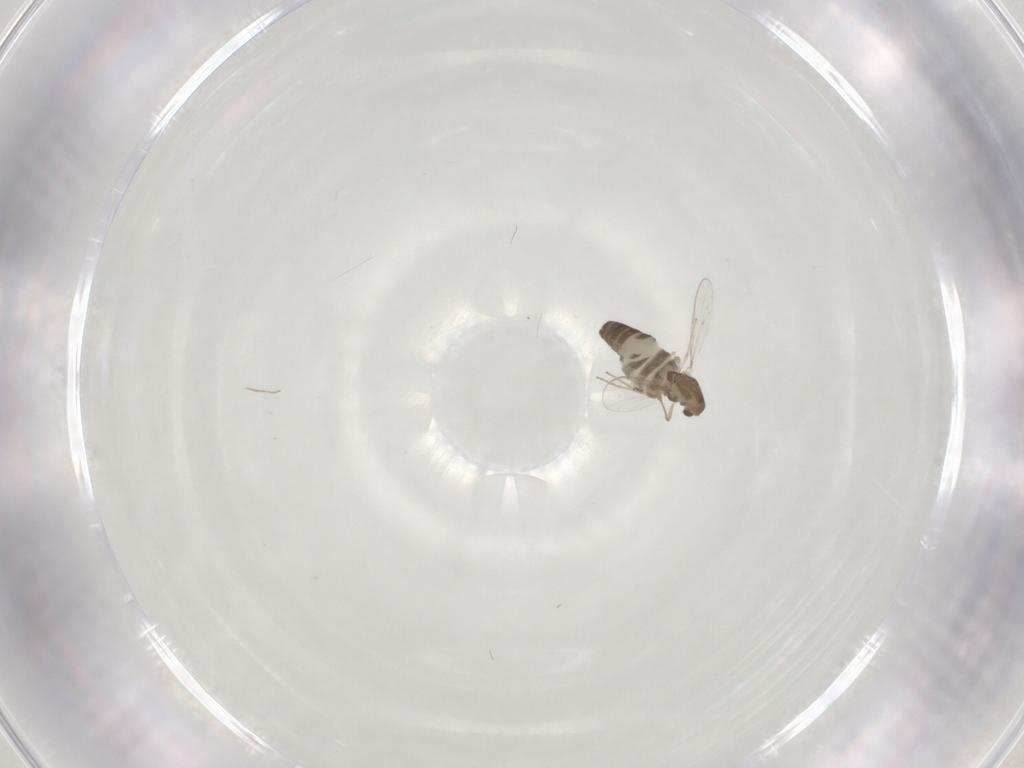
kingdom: Animalia
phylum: Arthropoda
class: Insecta
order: Diptera
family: Chironomidae
